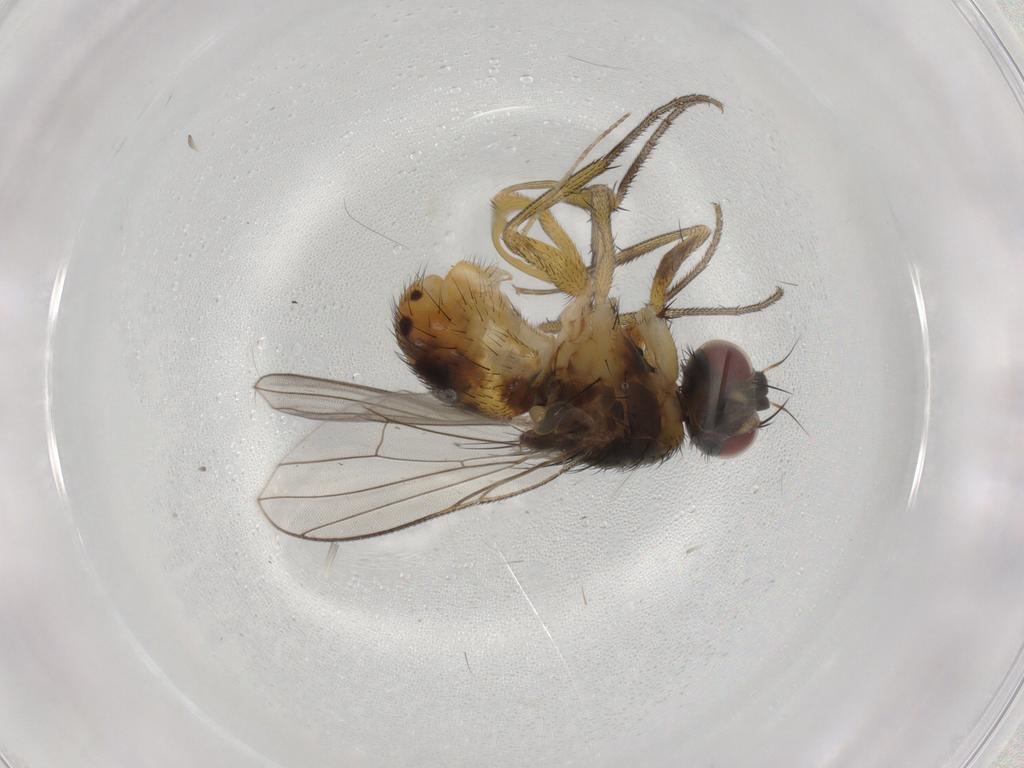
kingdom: Animalia
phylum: Arthropoda
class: Insecta
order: Diptera
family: Muscidae
